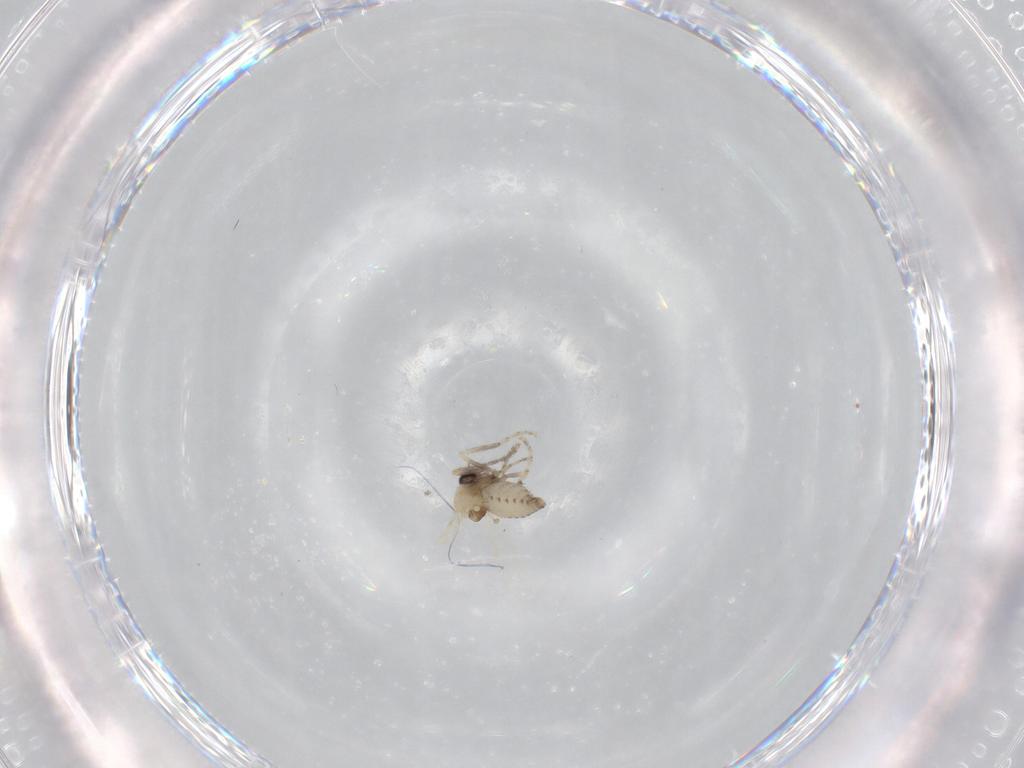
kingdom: Animalia
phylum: Arthropoda
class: Insecta
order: Diptera
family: Ceratopogonidae
